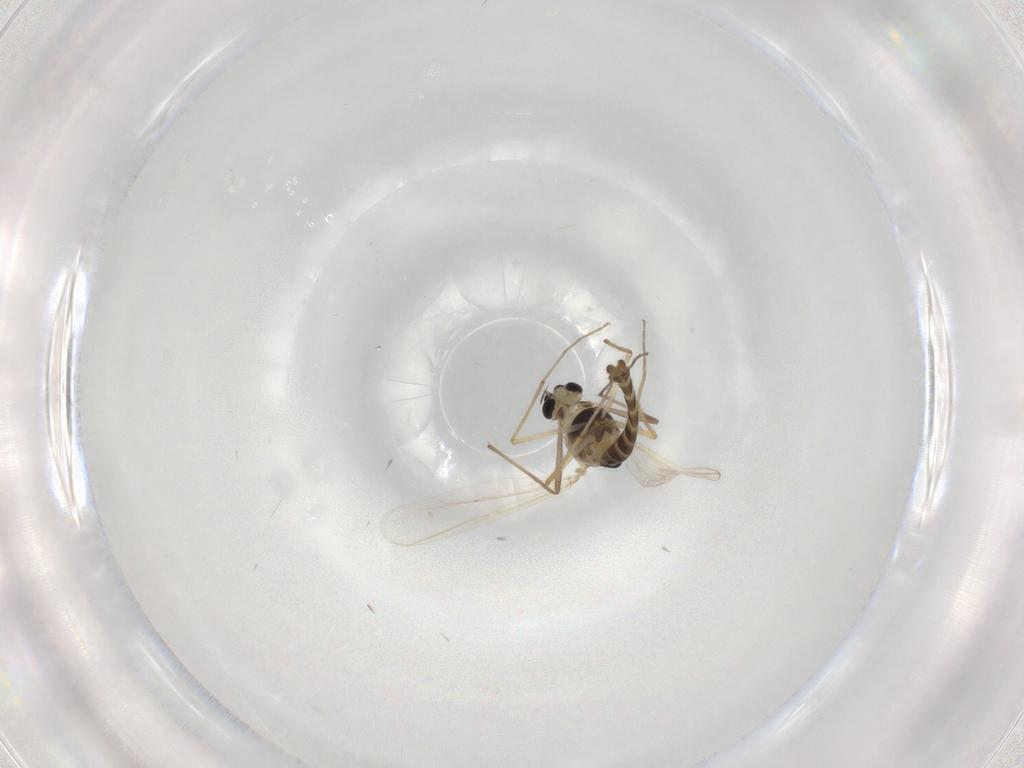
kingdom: Animalia
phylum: Arthropoda
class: Insecta
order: Diptera
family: Chironomidae
